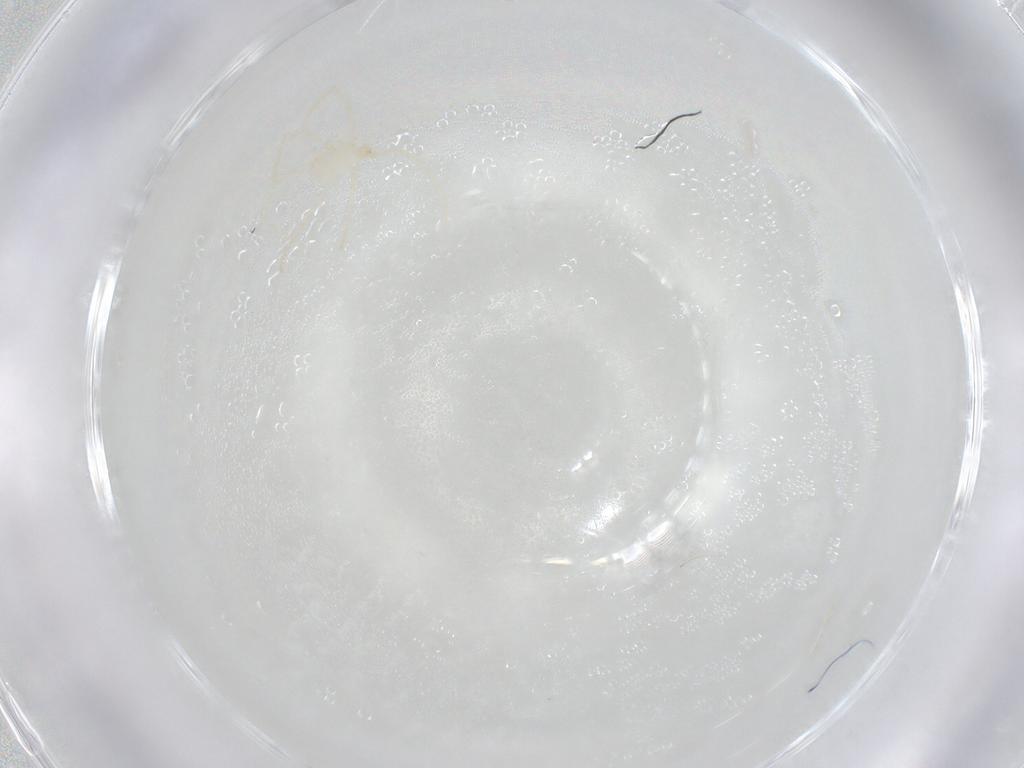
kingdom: Animalia
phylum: Arthropoda
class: Arachnida
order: Trombidiformes
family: Erythraeidae
